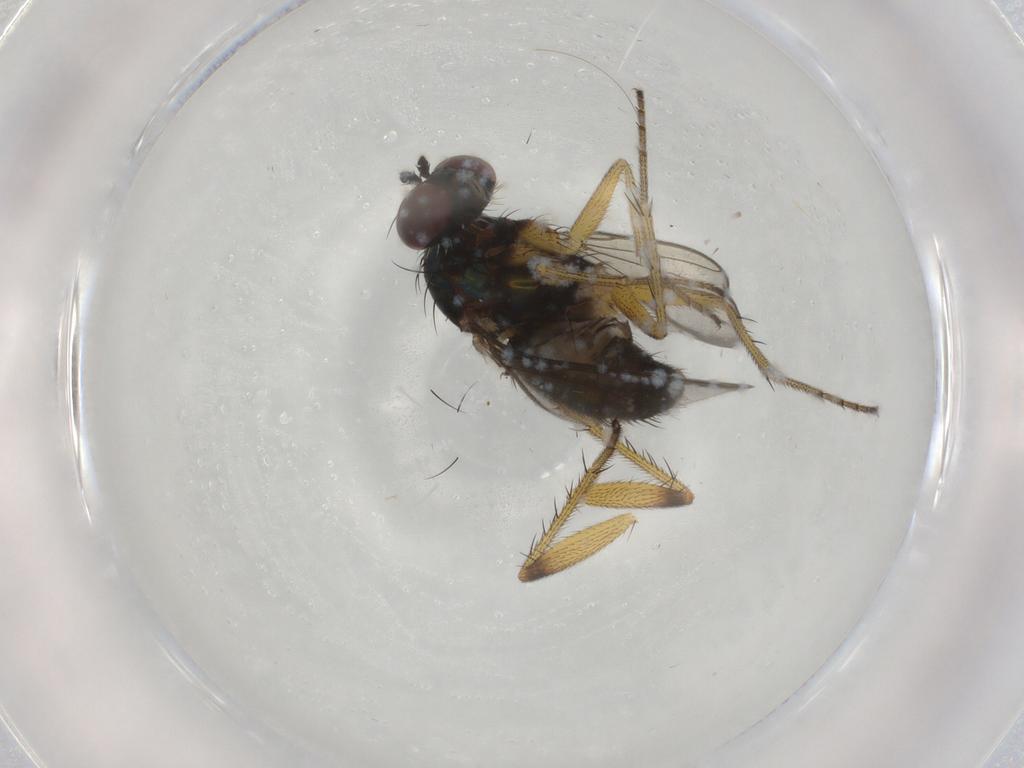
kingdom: Animalia
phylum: Arthropoda
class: Insecta
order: Diptera
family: Dolichopodidae
